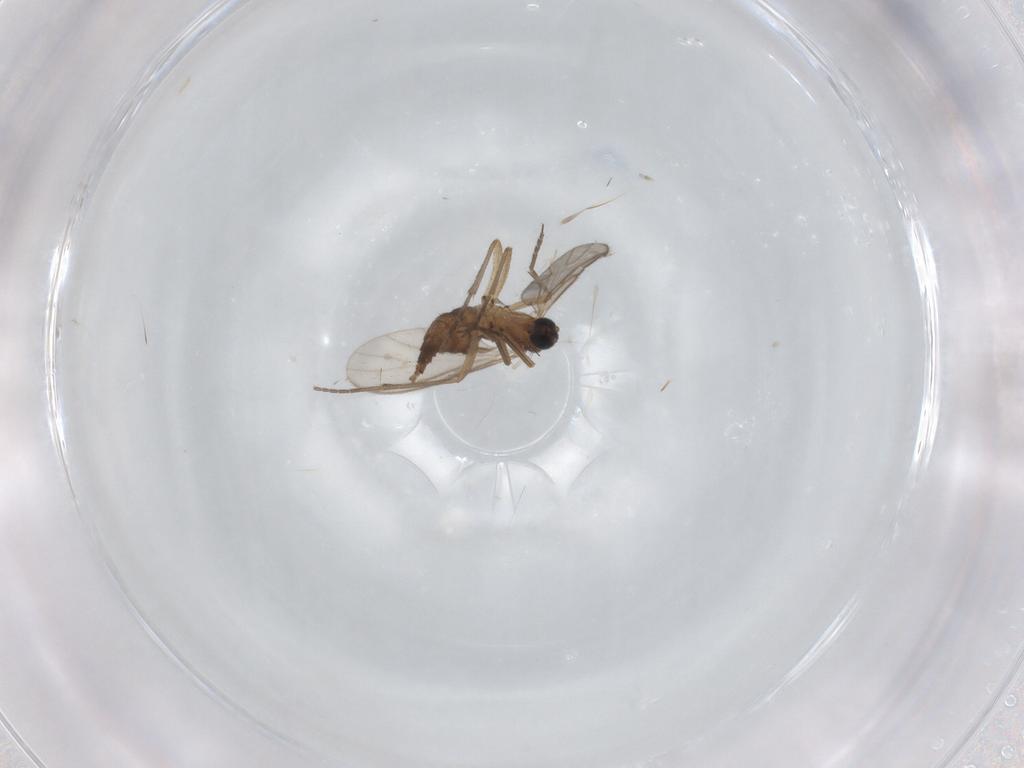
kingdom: Animalia
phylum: Arthropoda
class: Insecta
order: Diptera
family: Sciaridae
